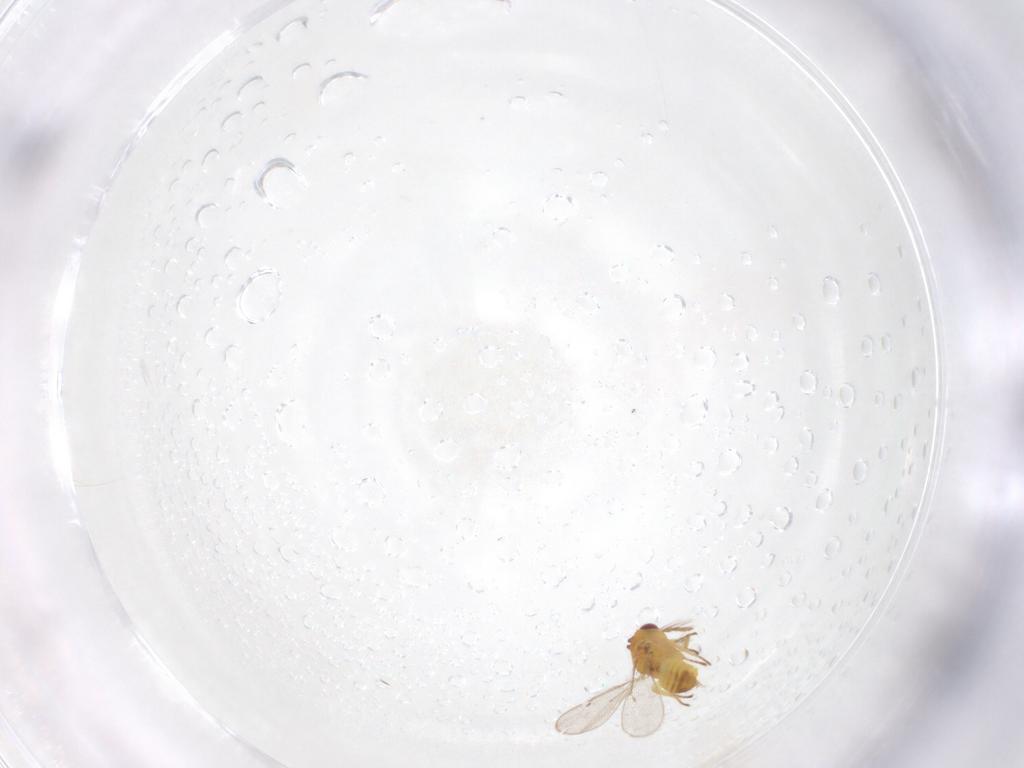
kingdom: Animalia
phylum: Arthropoda
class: Insecta
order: Hymenoptera
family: Eulophidae
